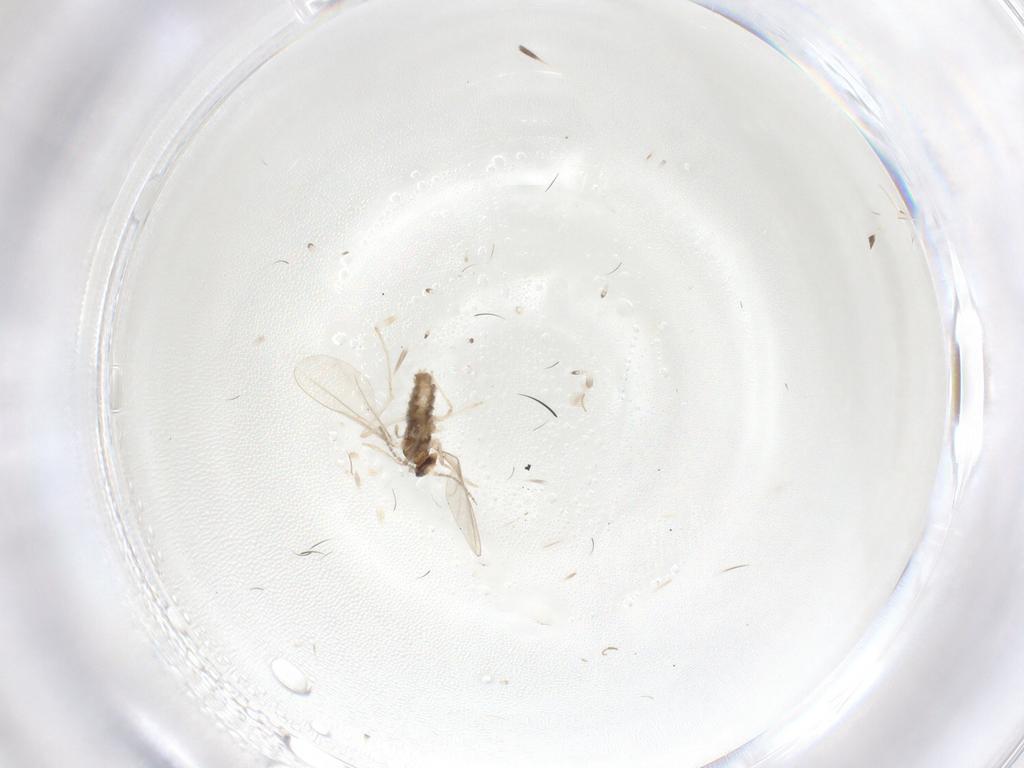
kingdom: Animalia
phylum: Arthropoda
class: Insecta
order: Diptera
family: Cecidomyiidae
